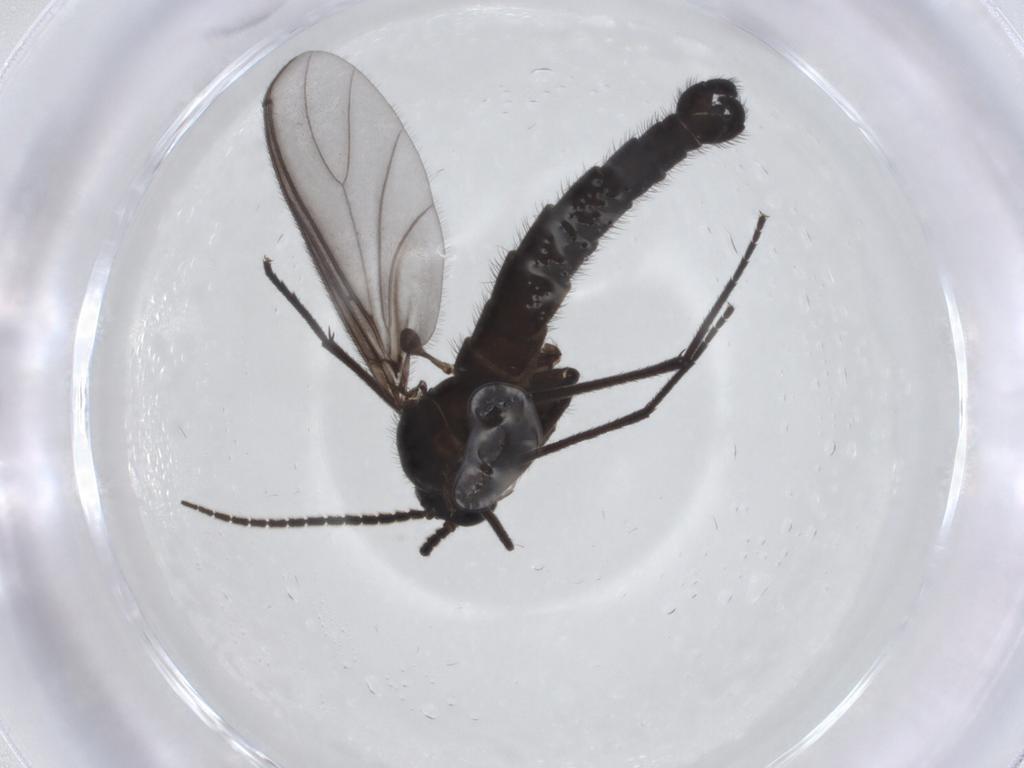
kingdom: Animalia
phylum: Arthropoda
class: Insecta
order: Diptera
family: Phoridae
